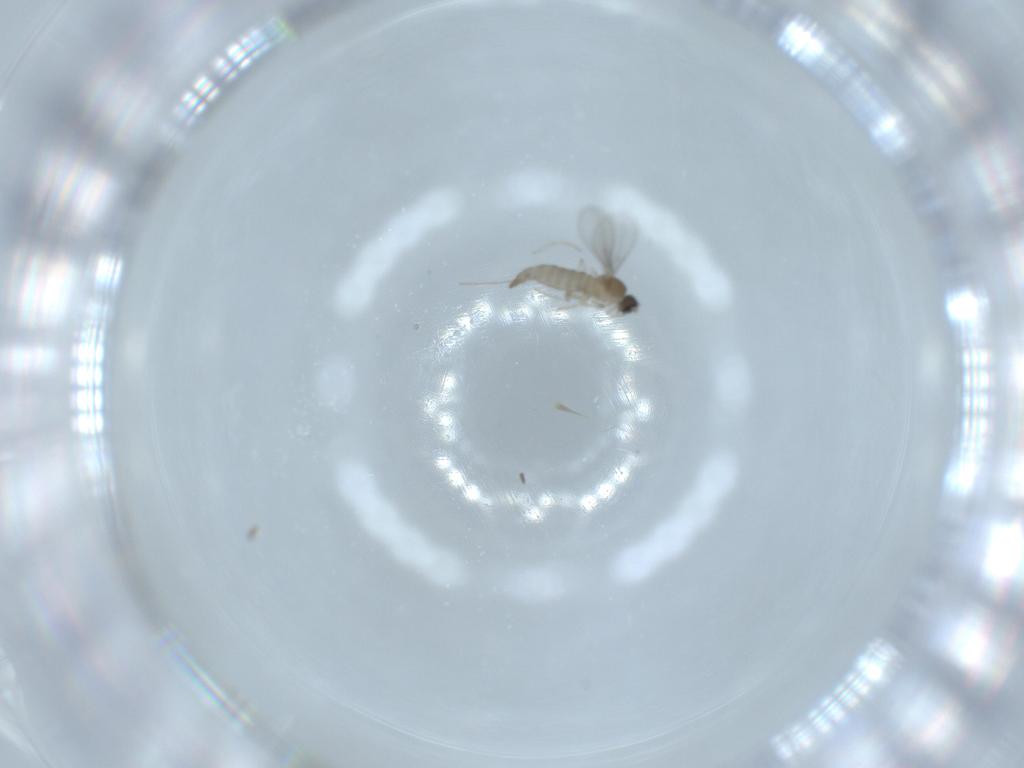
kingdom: Animalia
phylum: Arthropoda
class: Insecta
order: Diptera
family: Cecidomyiidae
